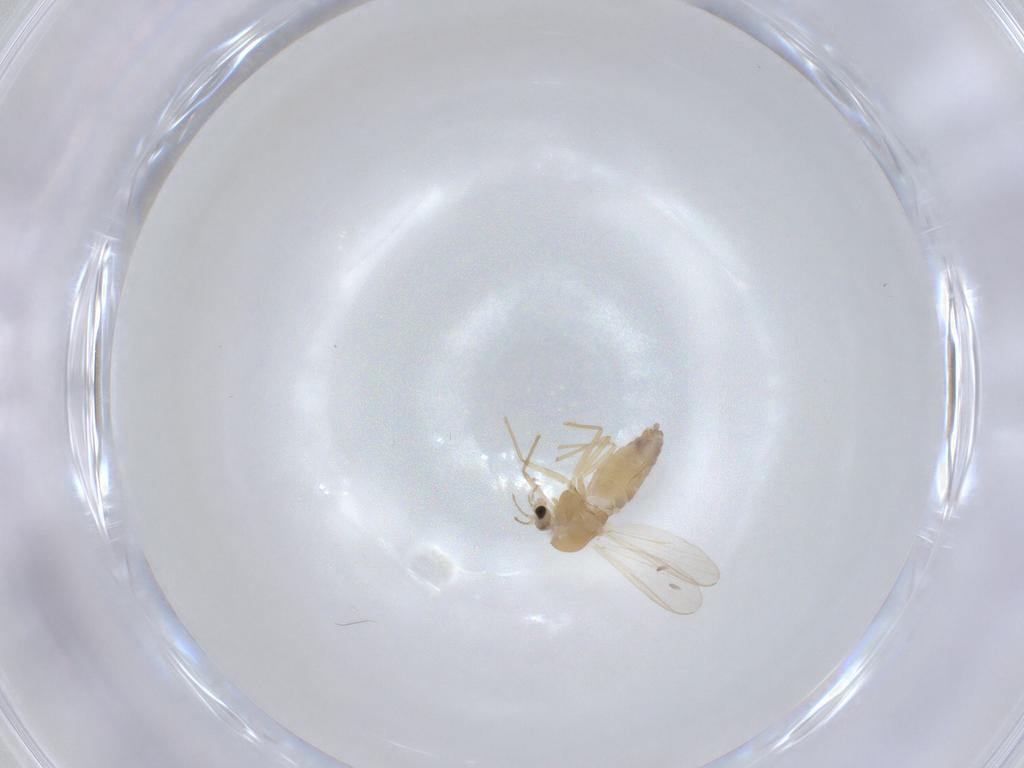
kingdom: Animalia
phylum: Arthropoda
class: Insecta
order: Diptera
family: Chironomidae
